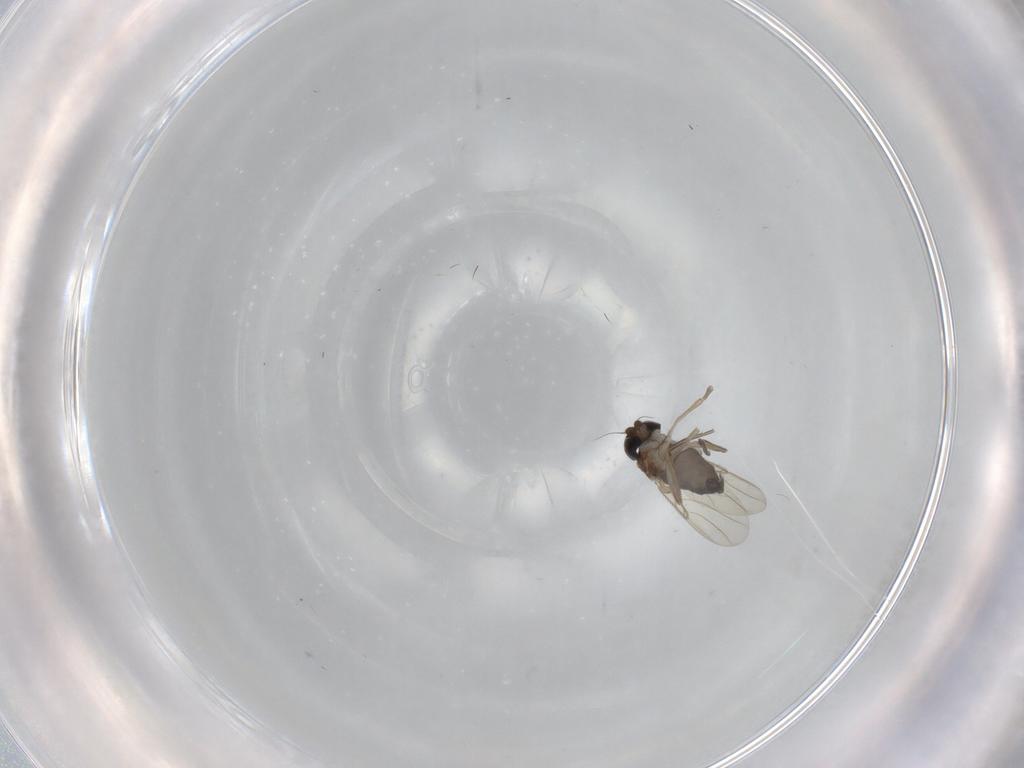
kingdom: Animalia
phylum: Arthropoda
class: Insecta
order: Diptera
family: Phoridae
